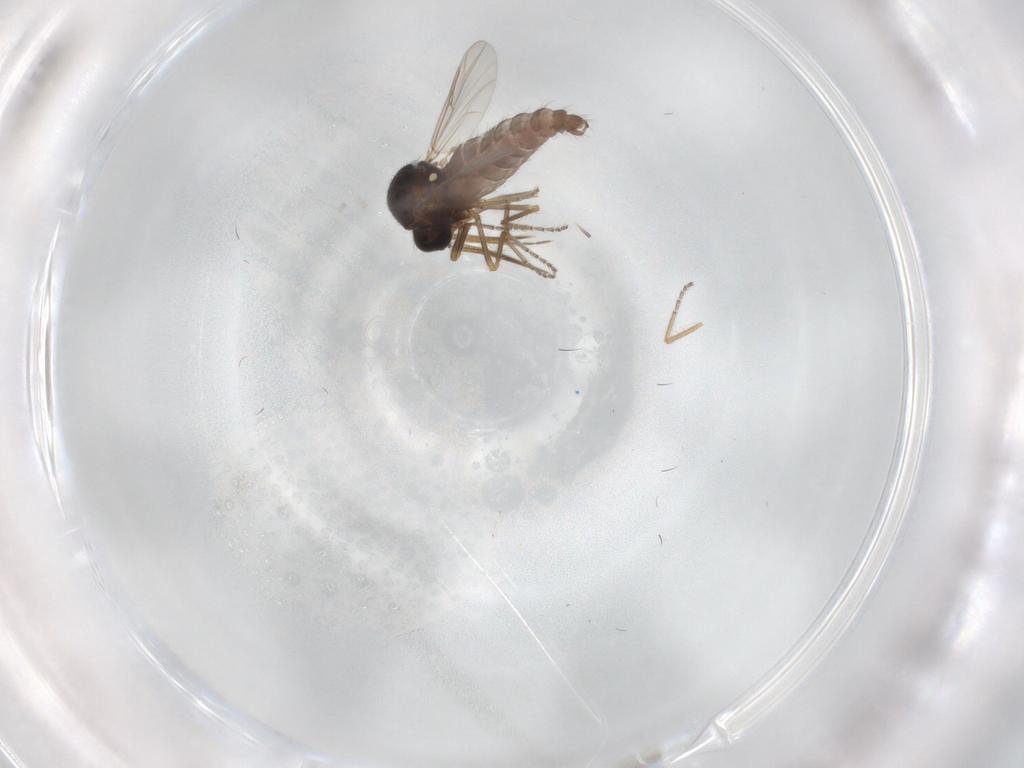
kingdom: Animalia
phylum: Arthropoda
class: Insecta
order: Diptera
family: Ceratopogonidae
